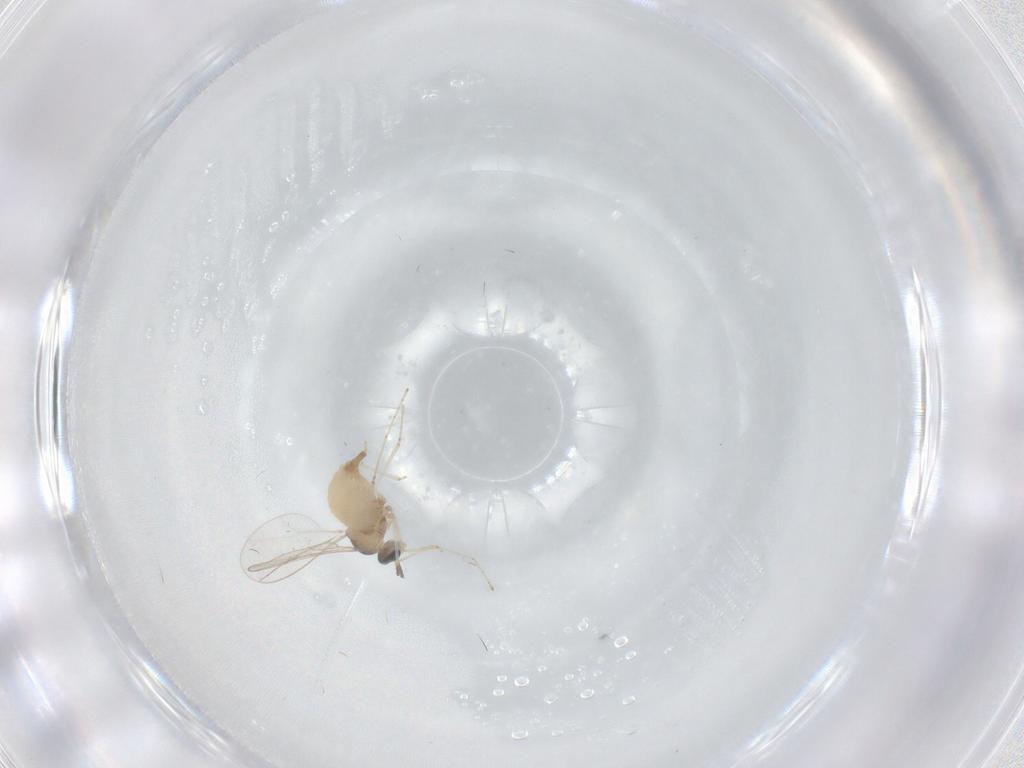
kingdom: Animalia
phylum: Arthropoda
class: Insecta
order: Diptera
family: Cecidomyiidae
